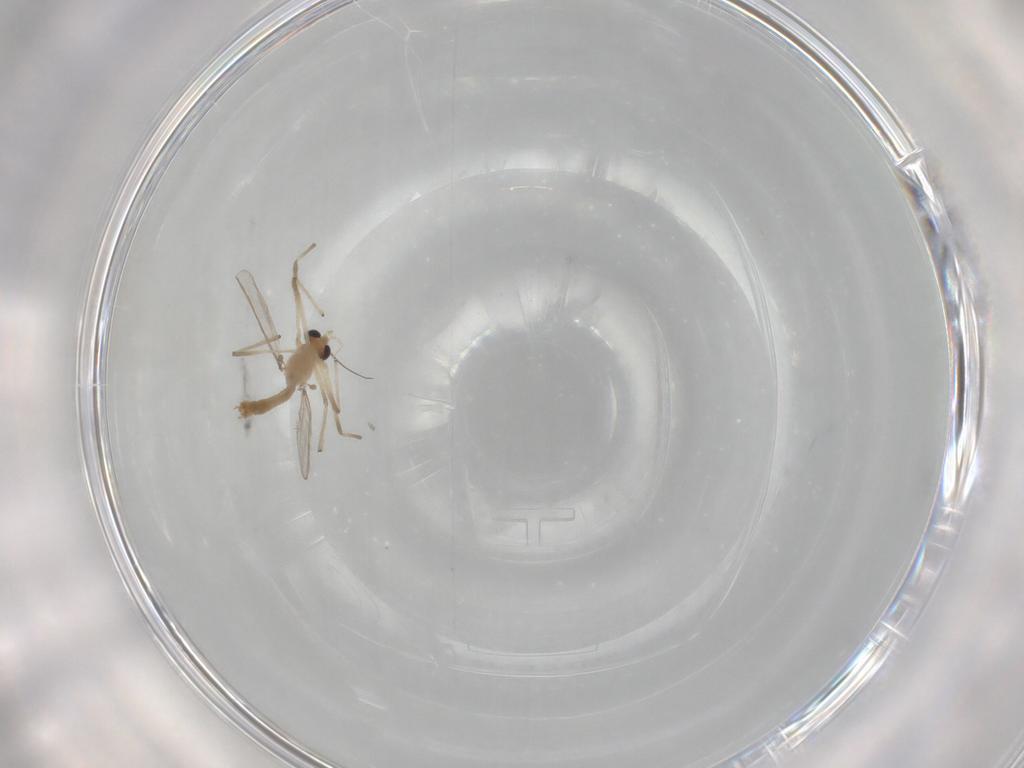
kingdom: Animalia
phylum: Arthropoda
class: Insecta
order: Diptera
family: Chironomidae
